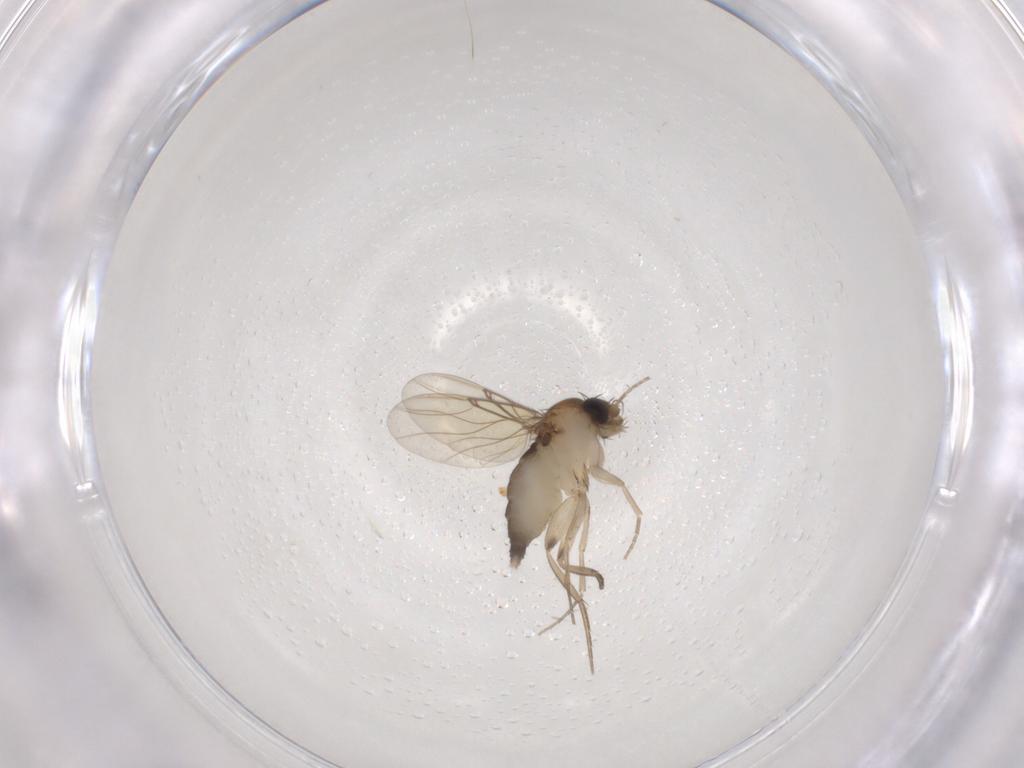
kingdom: Animalia
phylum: Arthropoda
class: Insecta
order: Diptera
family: Phoridae
